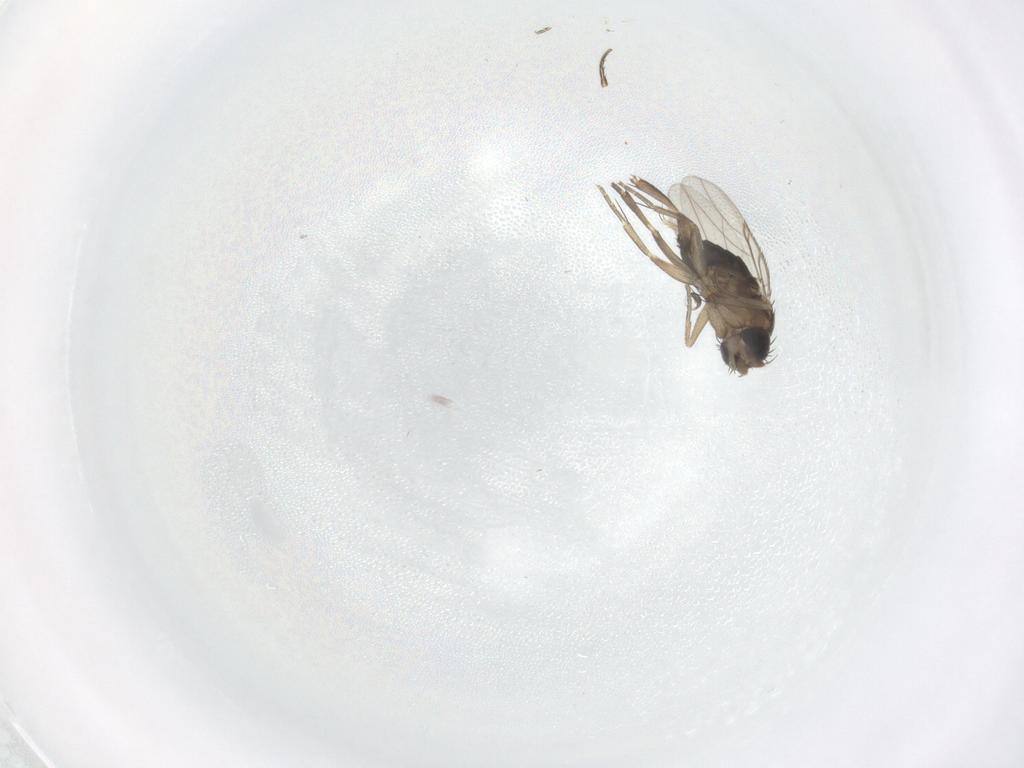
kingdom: Animalia
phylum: Arthropoda
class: Insecta
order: Diptera
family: Phoridae
